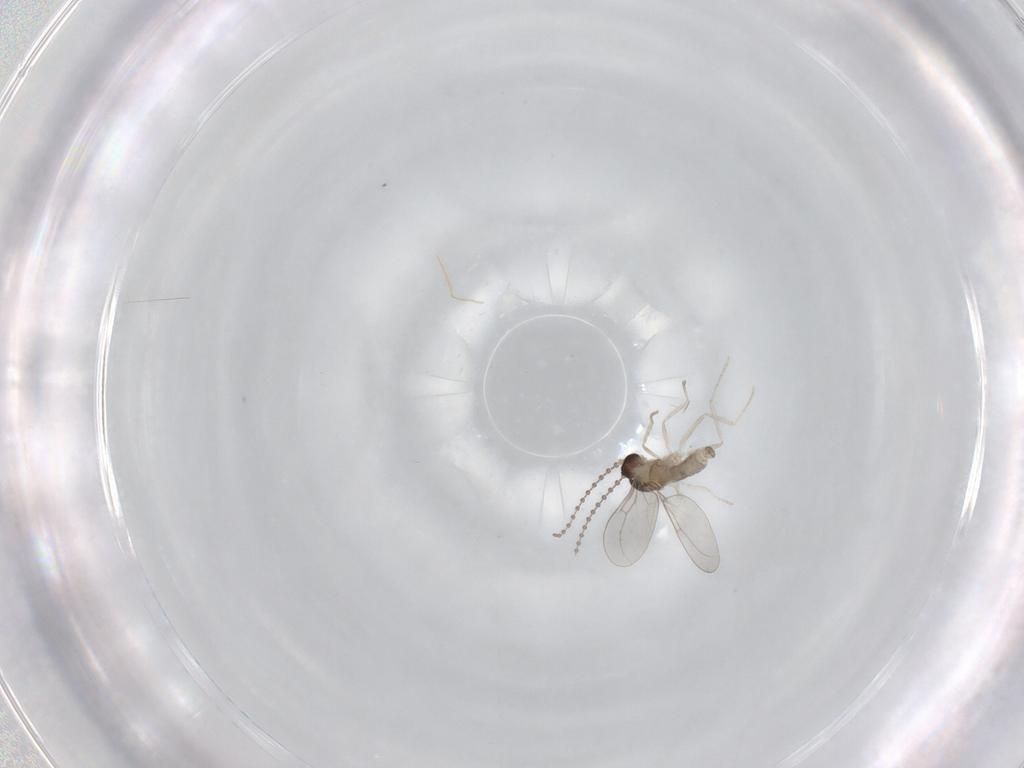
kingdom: Animalia
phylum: Arthropoda
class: Insecta
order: Diptera
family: Cecidomyiidae
